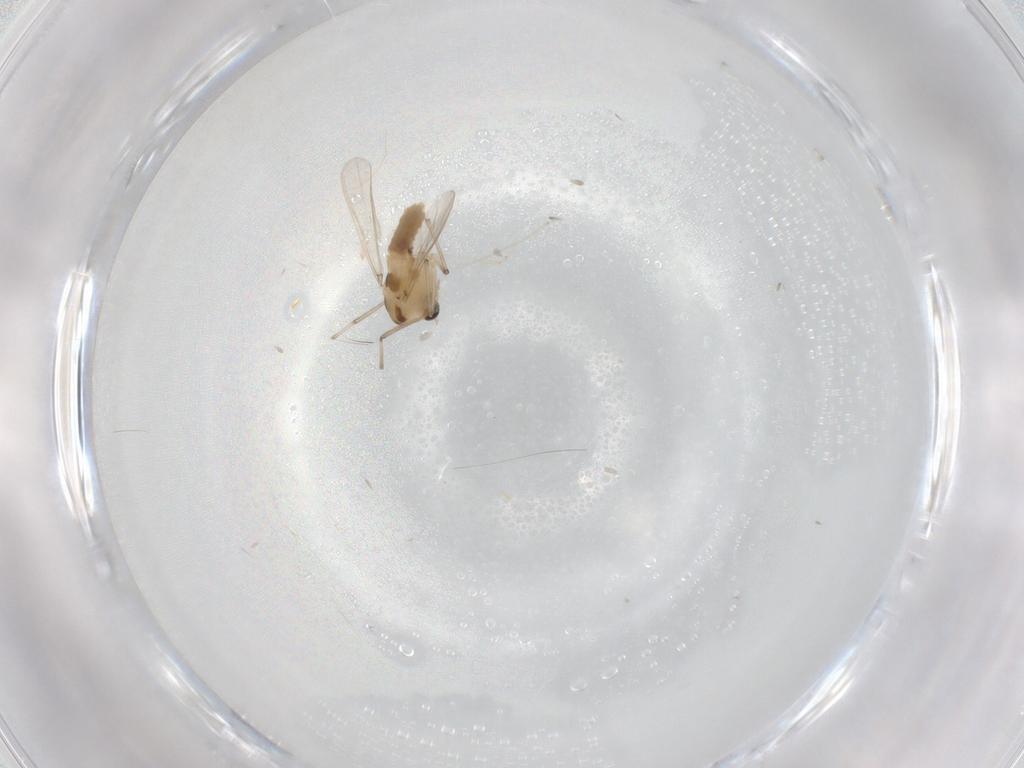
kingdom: Animalia
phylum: Arthropoda
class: Insecta
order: Diptera
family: Chironomidae
